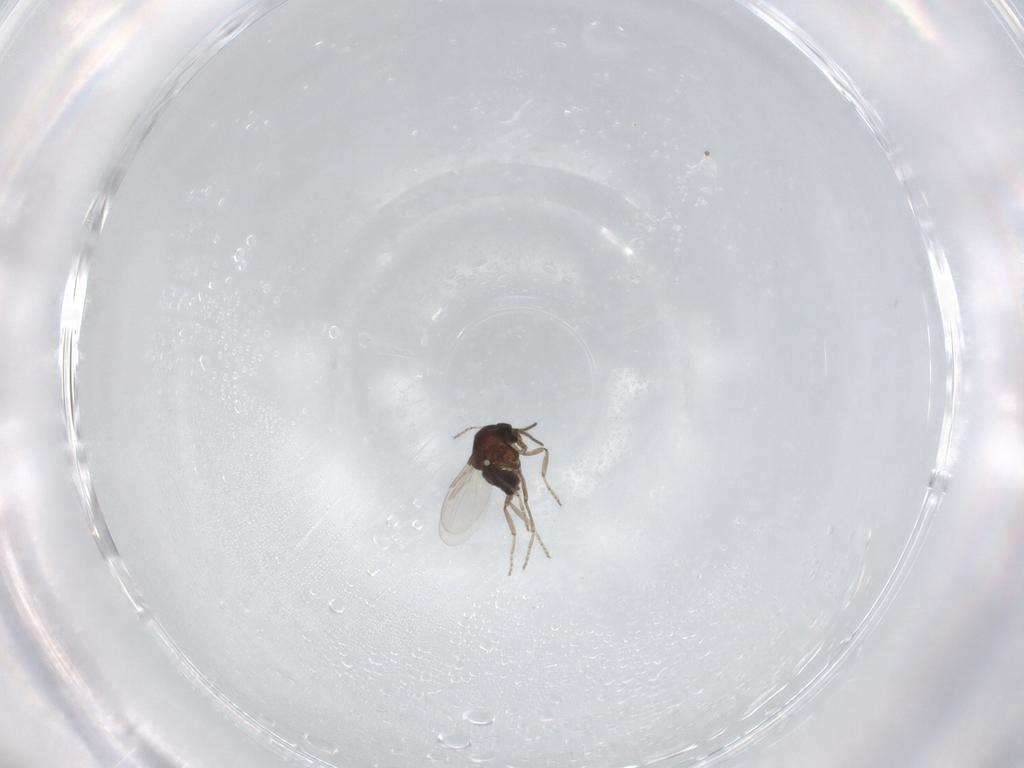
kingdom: Animalia
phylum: Arthropoda
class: Insecta
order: Diptera
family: Ceratopogonidae
